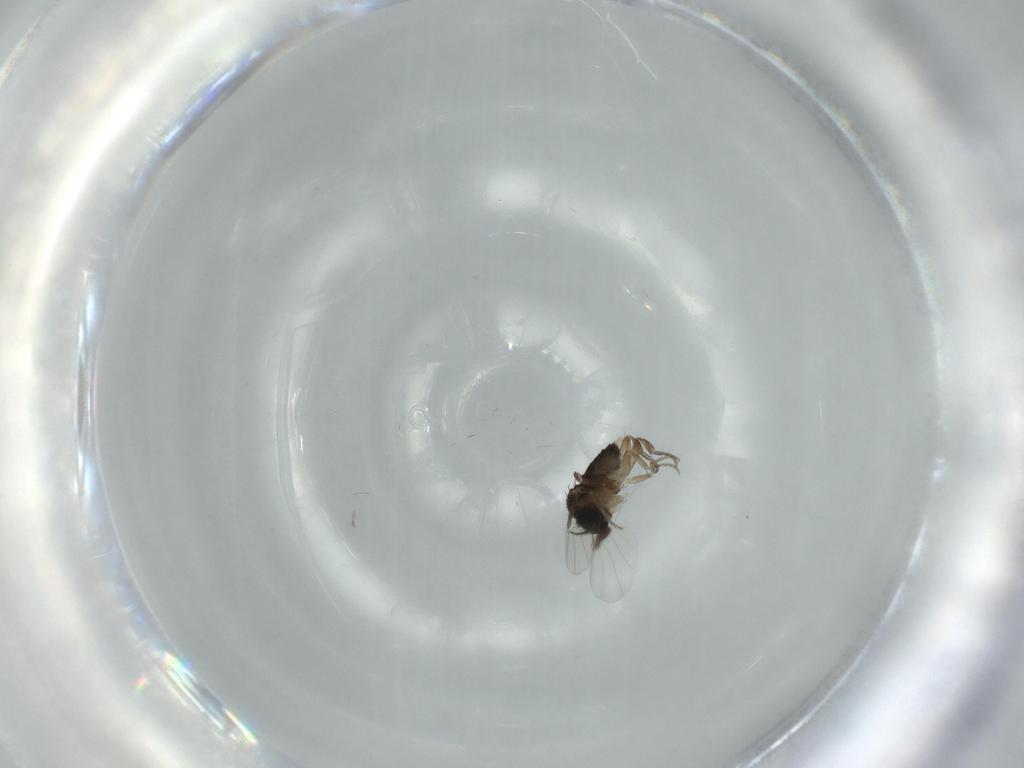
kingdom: Animalia
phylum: Arthropoda
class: Insecta
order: Diptera
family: Phoridae
